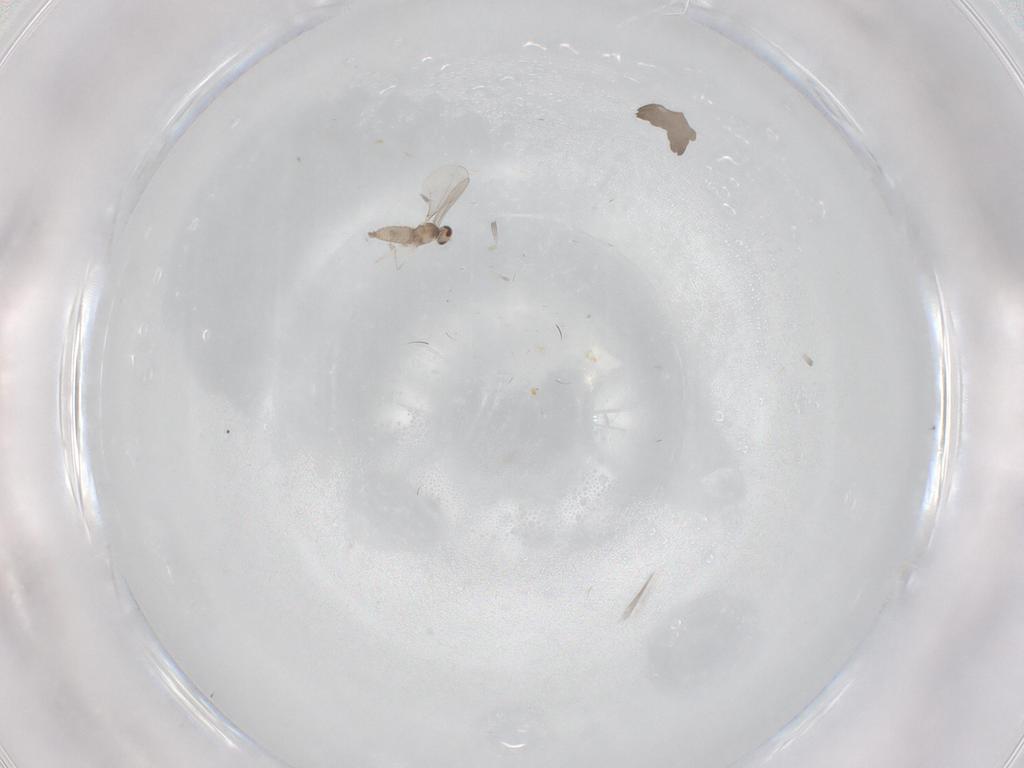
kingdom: Animalia
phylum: Arthropoda
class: Insecta
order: Diptera
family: Cecidomyiidae
